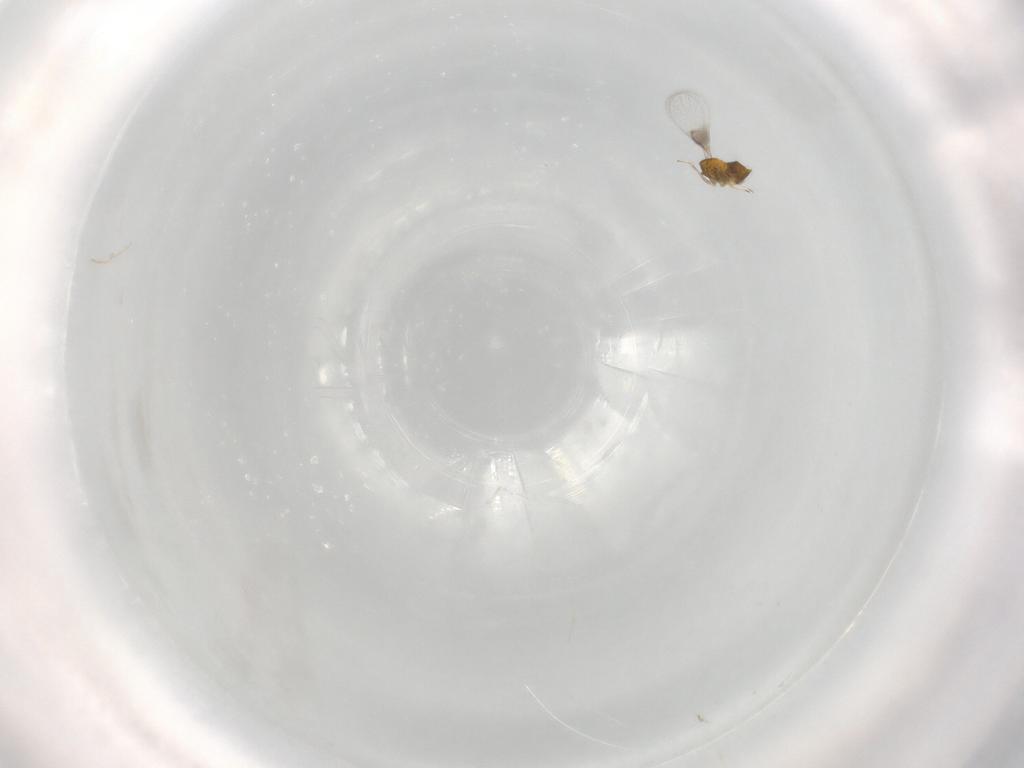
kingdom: Animalia
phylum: Arthropoda
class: Insecta
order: Hymenoptera
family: Trichogrammatidae
